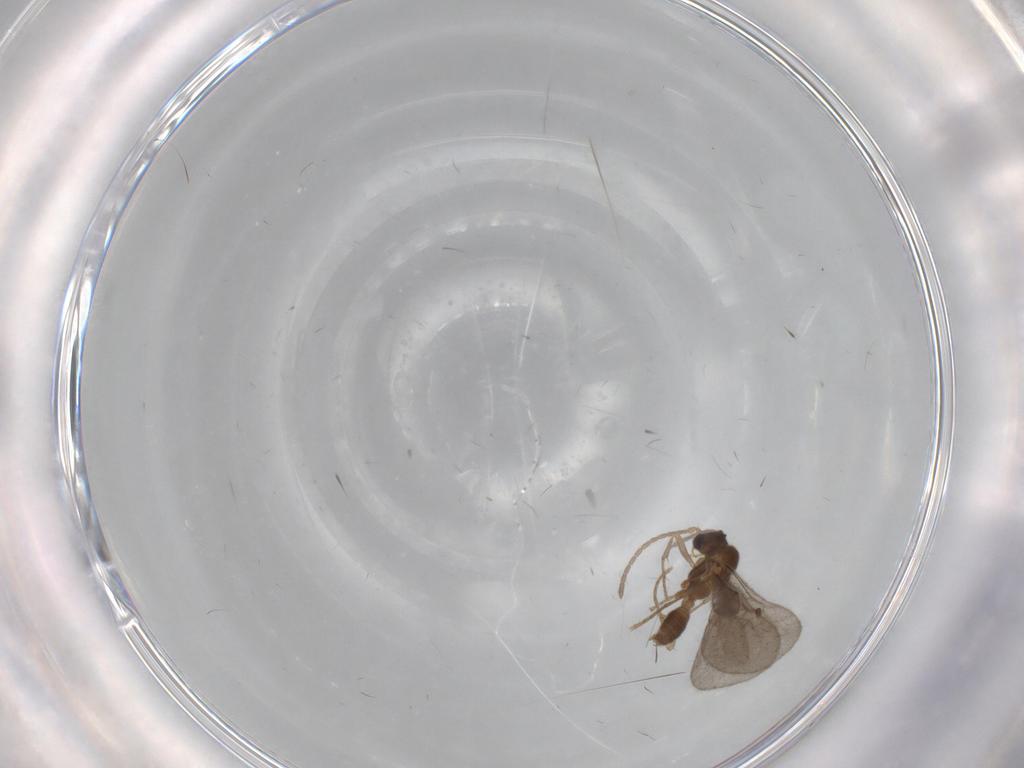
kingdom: Animalia
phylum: Arthropoda
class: Insecta
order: Hymenoptera
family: Formicidae
